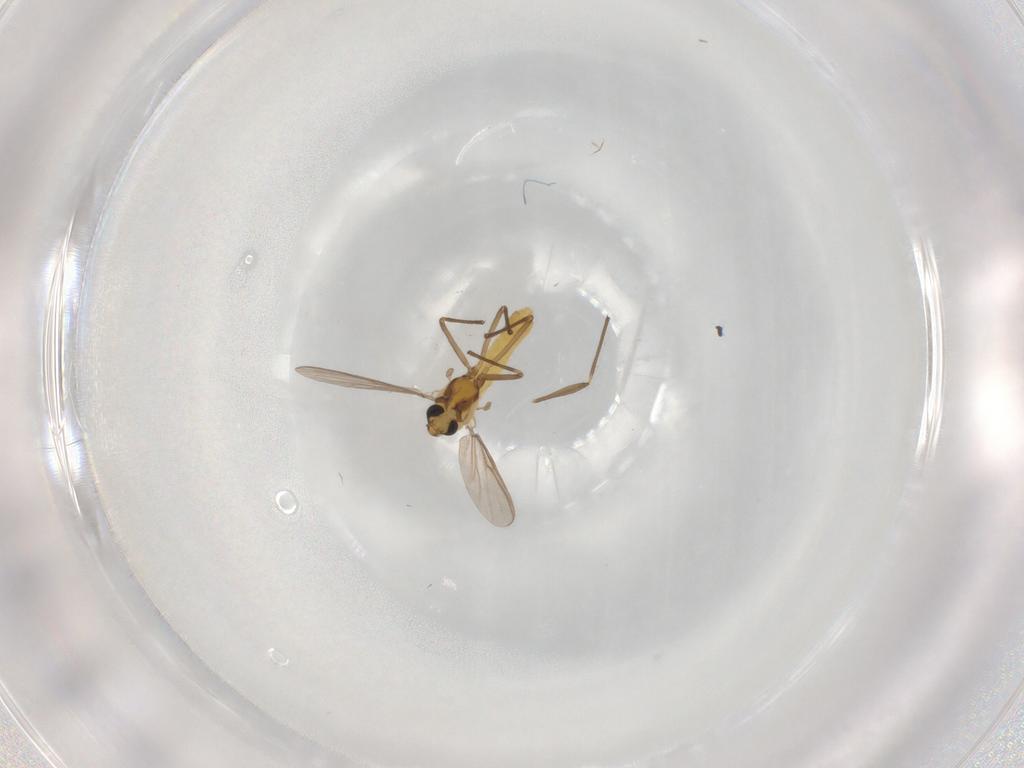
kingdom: Animalia
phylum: Arthropoda
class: Insecta
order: Diptera
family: Chironomidae
